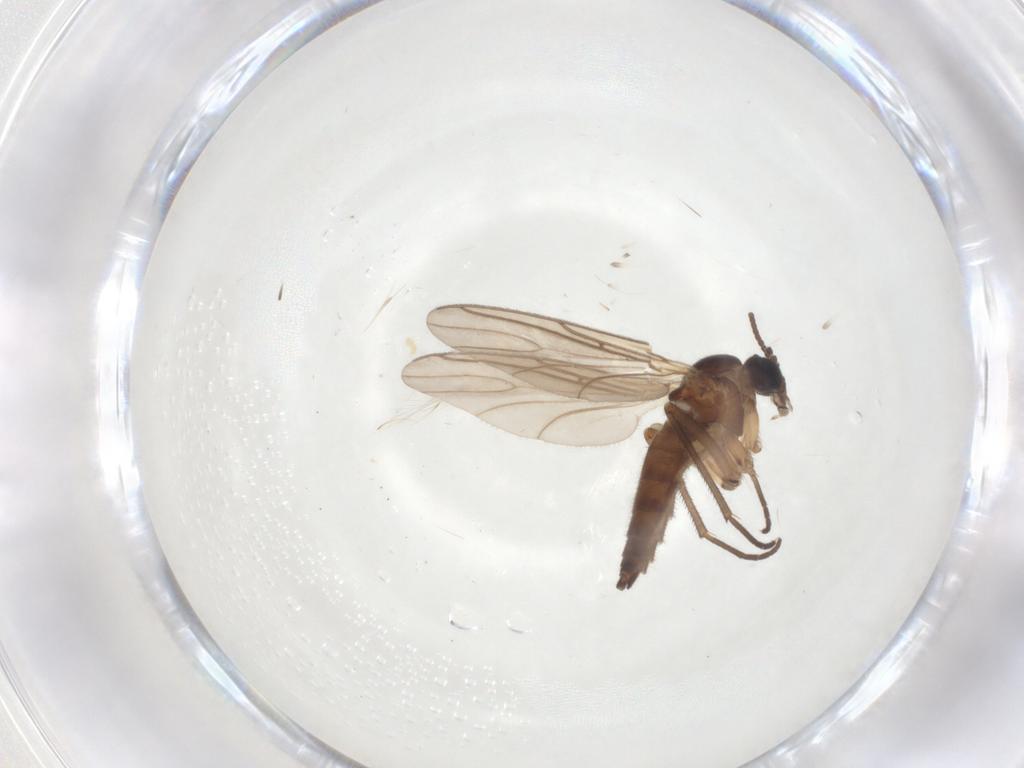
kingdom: Animalia
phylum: Arthropoda
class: Insecta
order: Diptera
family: Sciaridae
